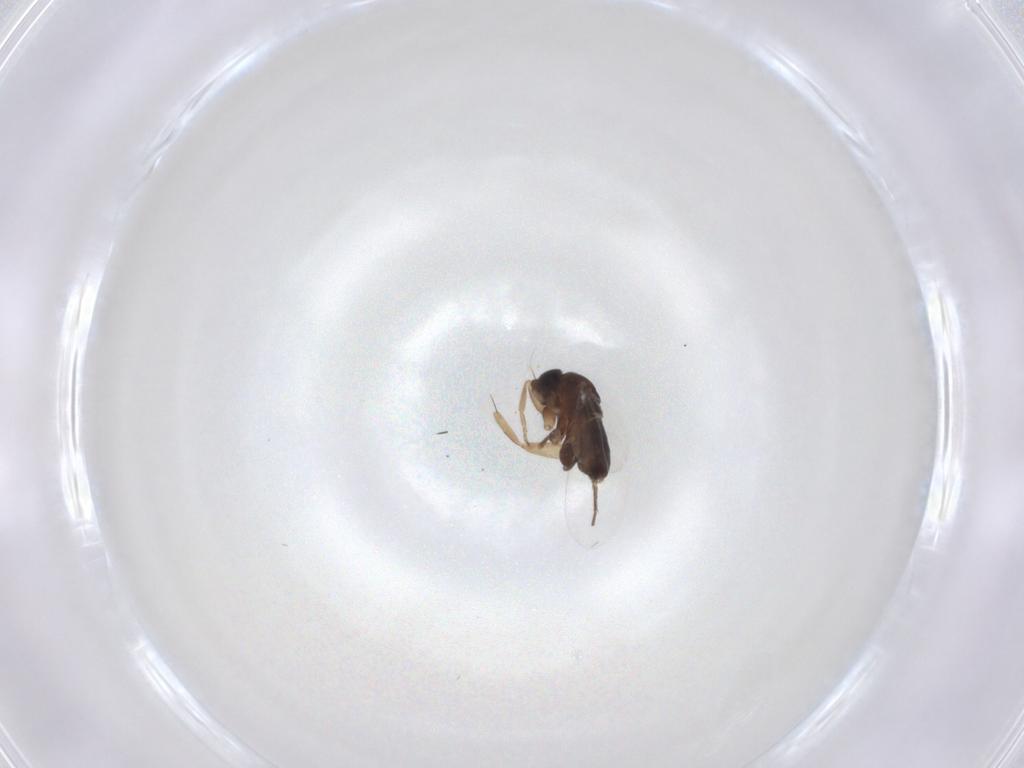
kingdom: Animalia
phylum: Arthropoda
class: Insecta
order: Diptera
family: Phoridae
